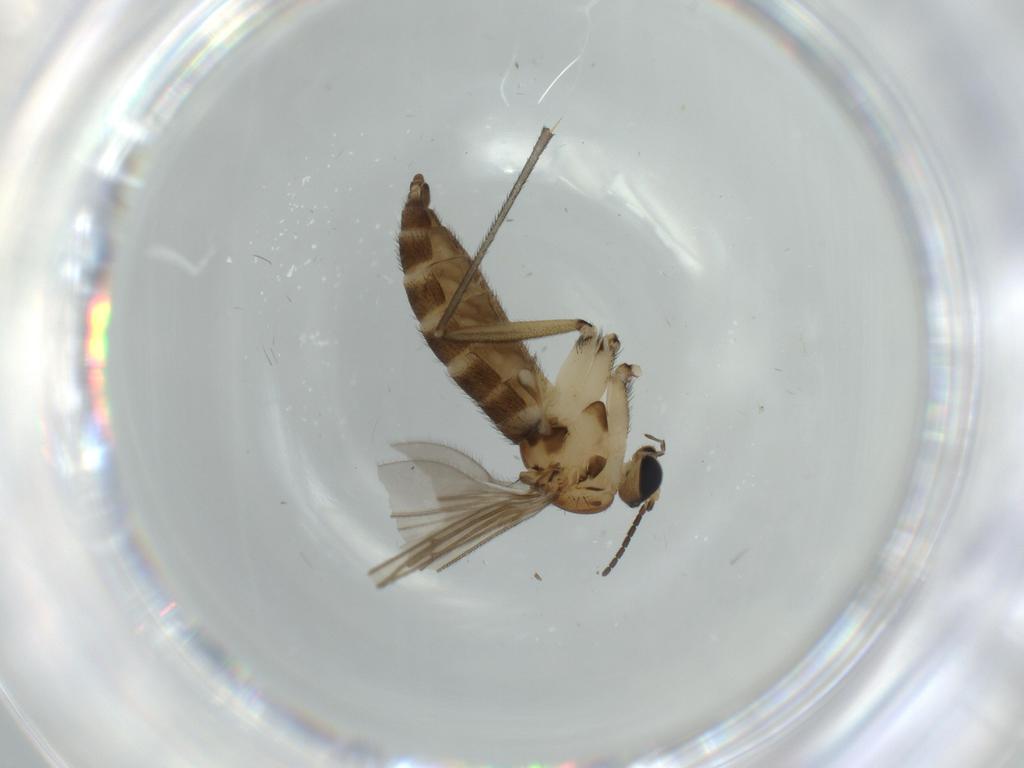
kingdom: Animalia
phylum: Arthropoda
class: Insecta
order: Diptera
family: Sciaridae
